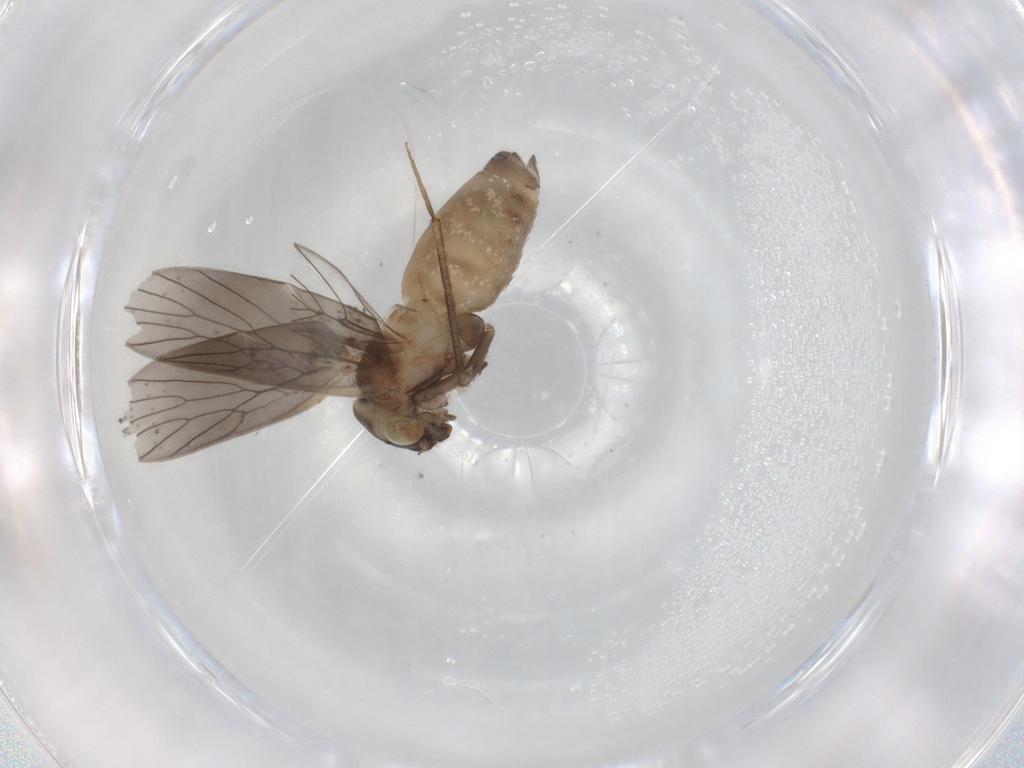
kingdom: Animalia
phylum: Arthropoda
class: Insecta
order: Psocodea
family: Lepidopsocidae
